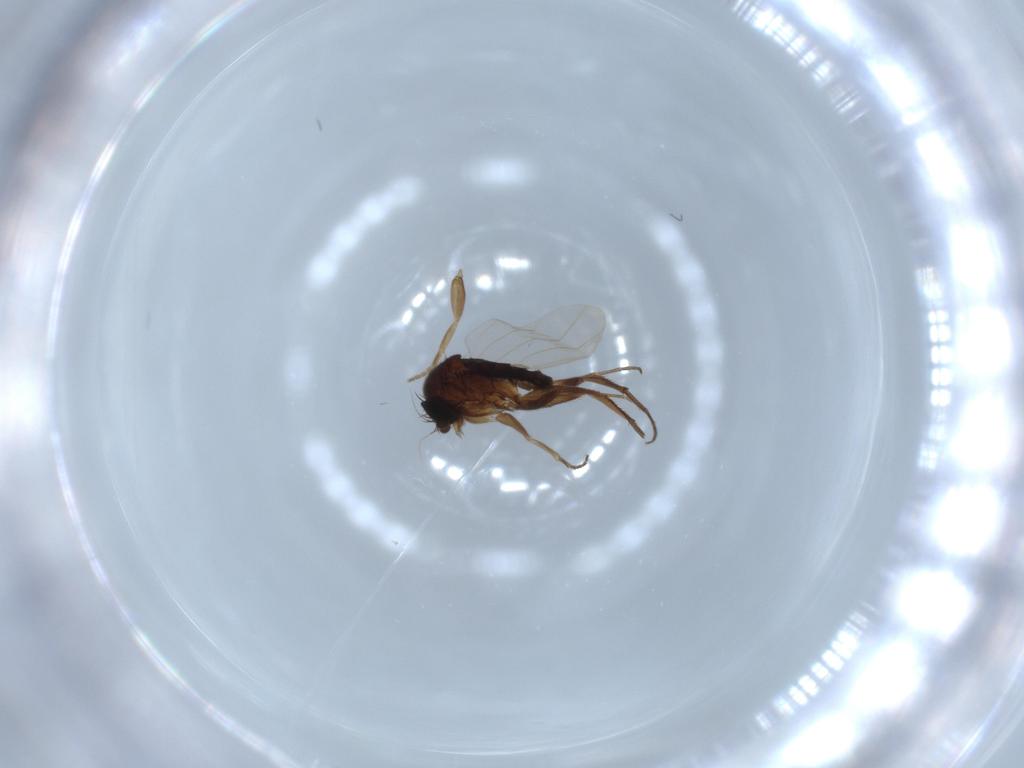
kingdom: Animalia
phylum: Arthropoda
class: Insecta
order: Diptera
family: Phoridae
